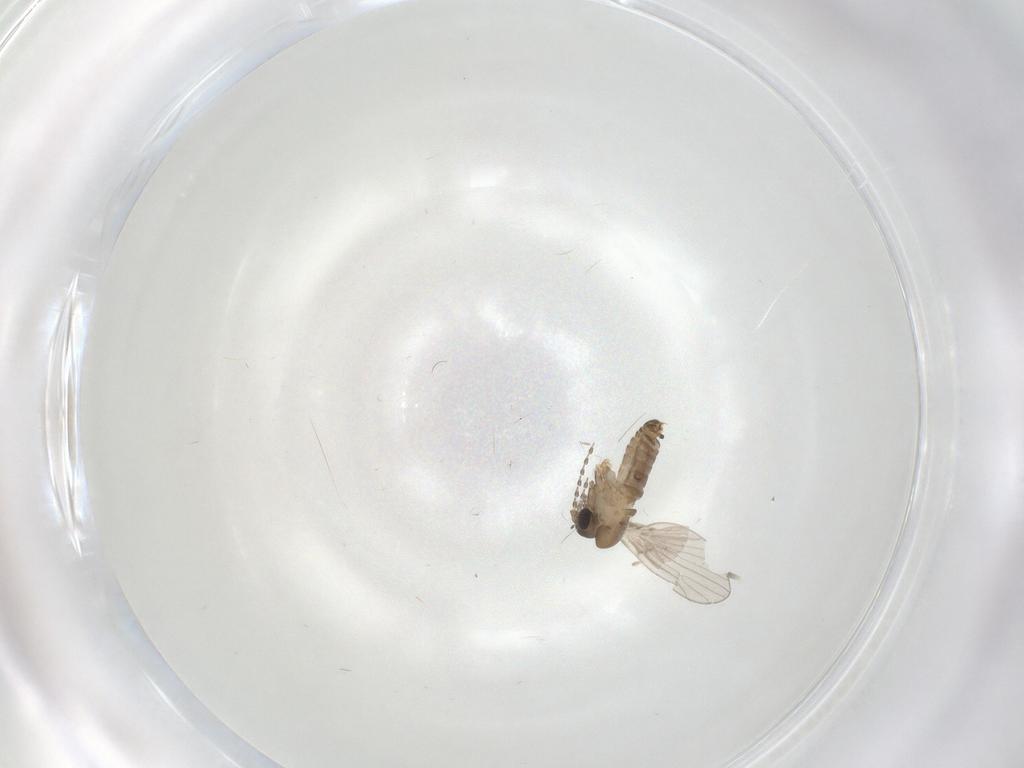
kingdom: Animalia
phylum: Arthropoda
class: Insecta
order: Diptera
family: Psychodidae
